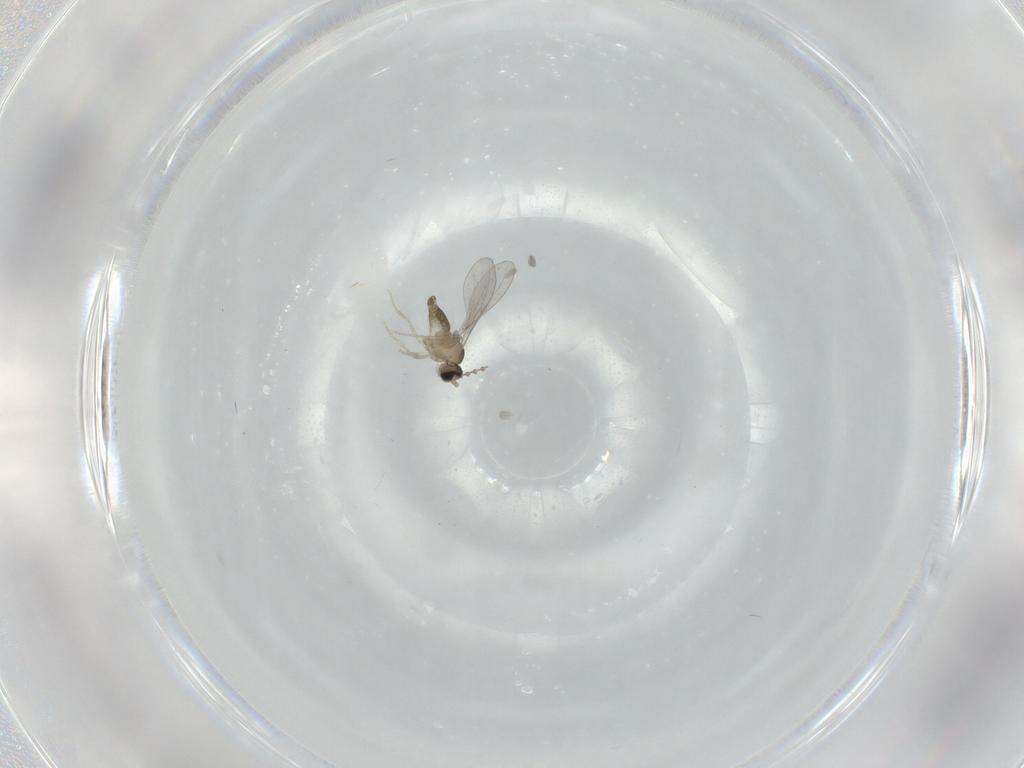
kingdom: Animalia
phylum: Arthropoda
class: Insecta
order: Diptera
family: Cecidomyiidae
